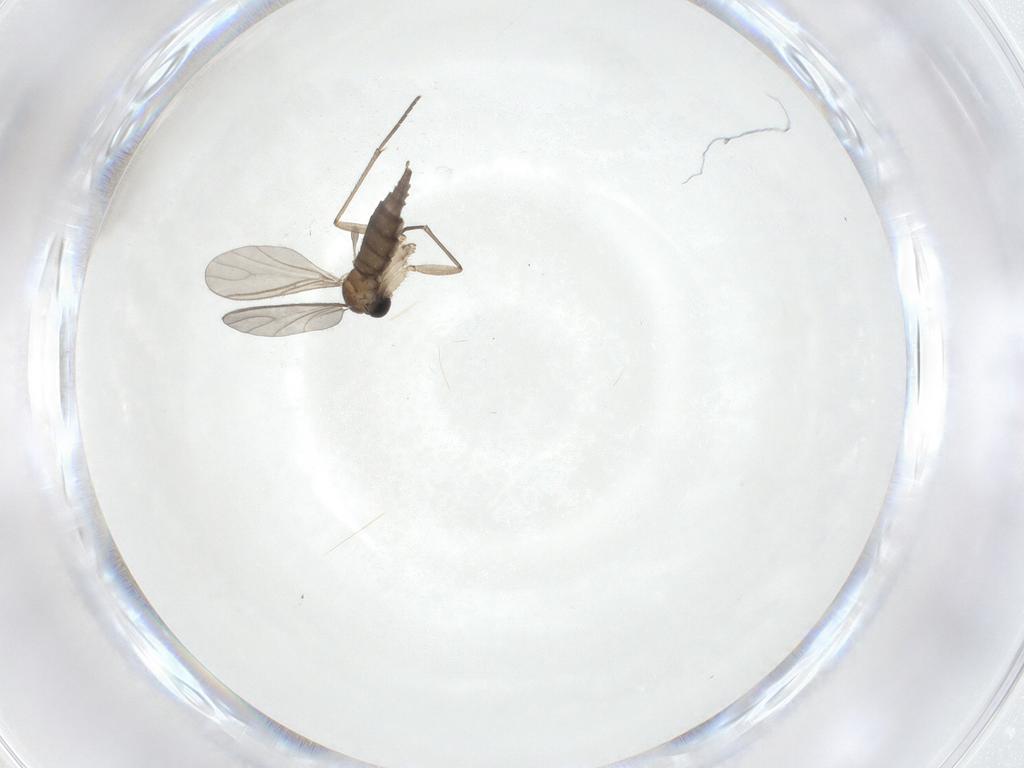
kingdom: Animalia
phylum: Arthropoda
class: Insecta
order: Diptera
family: Sciaridae
